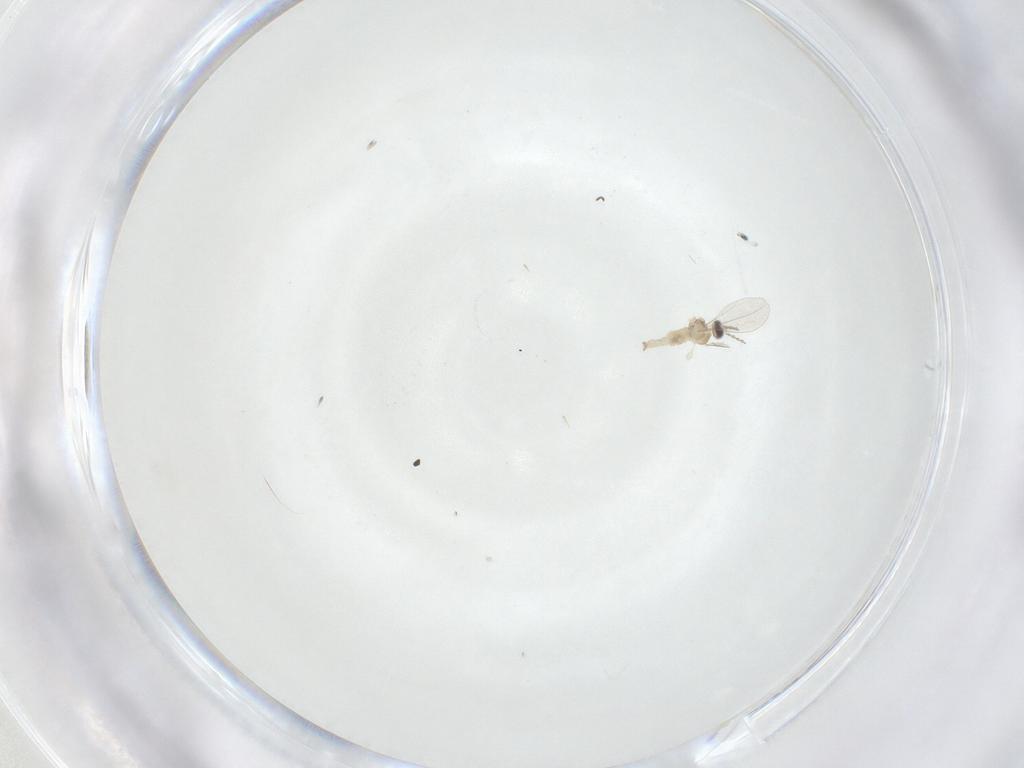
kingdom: Animalia
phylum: Arthropoda
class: Insecta
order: Diptera
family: Cecidomyiidae
